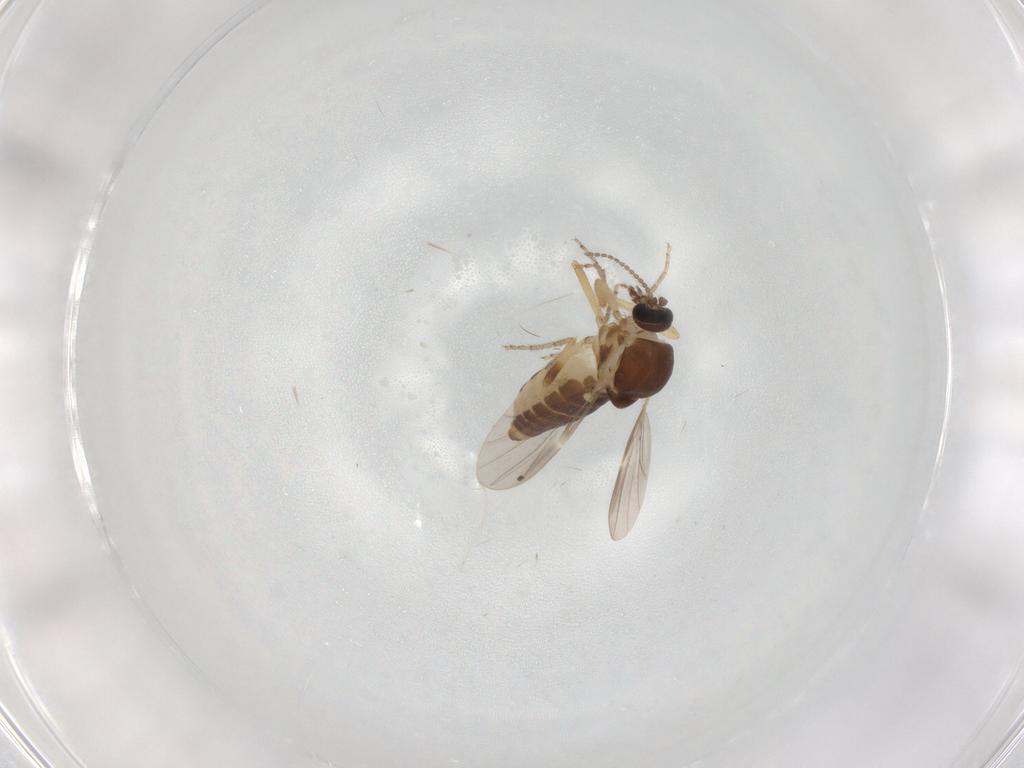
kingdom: Animalia
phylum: Arthropoda
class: Insecta
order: Diptera
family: Cecidomyiidae
